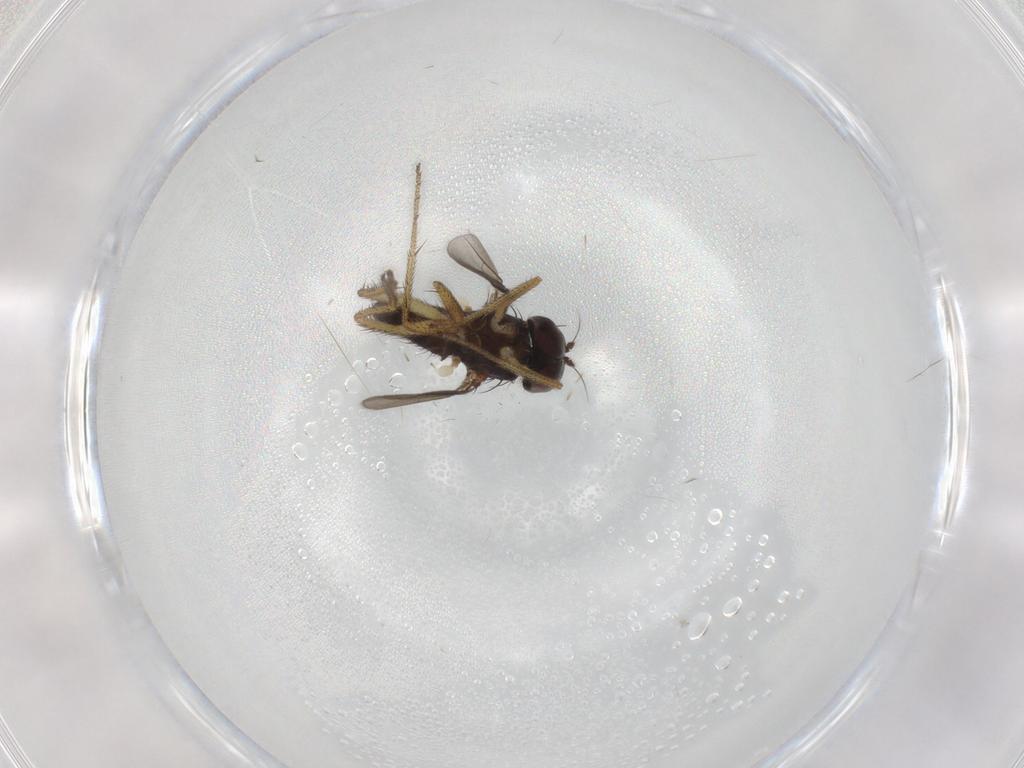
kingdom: Animalia
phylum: Arthropoda
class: Insecta
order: Diptera
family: Dolichopodidae
